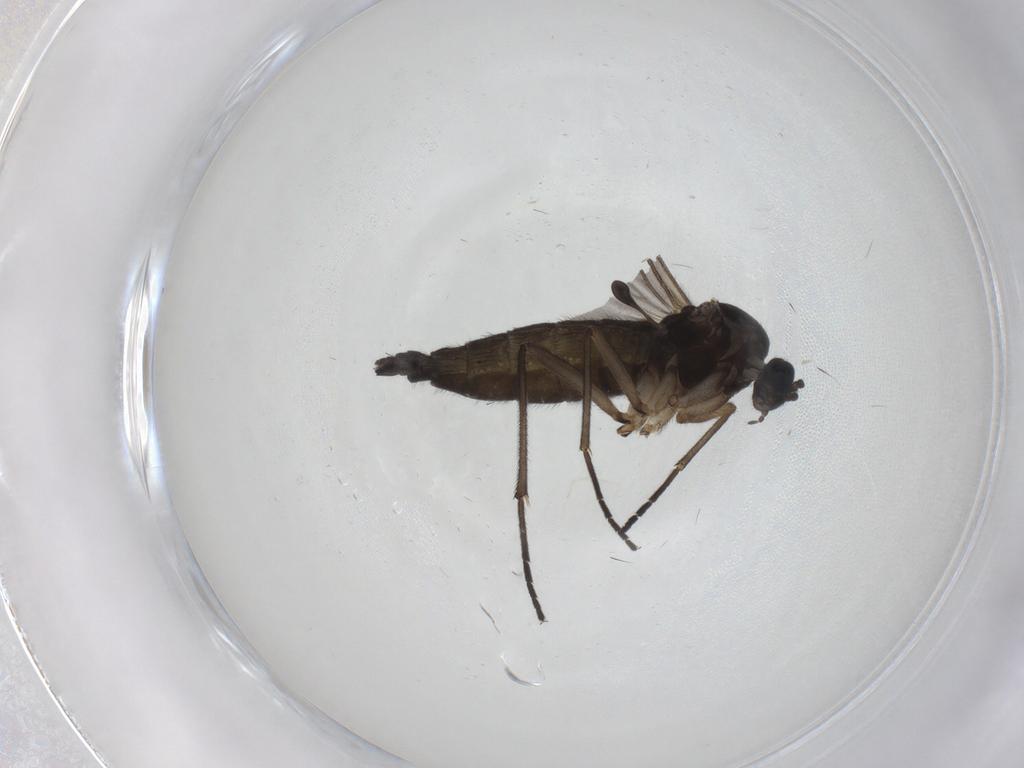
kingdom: Animalia
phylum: Arthropoda
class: Insecta
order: Diptera
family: Sciaridae
